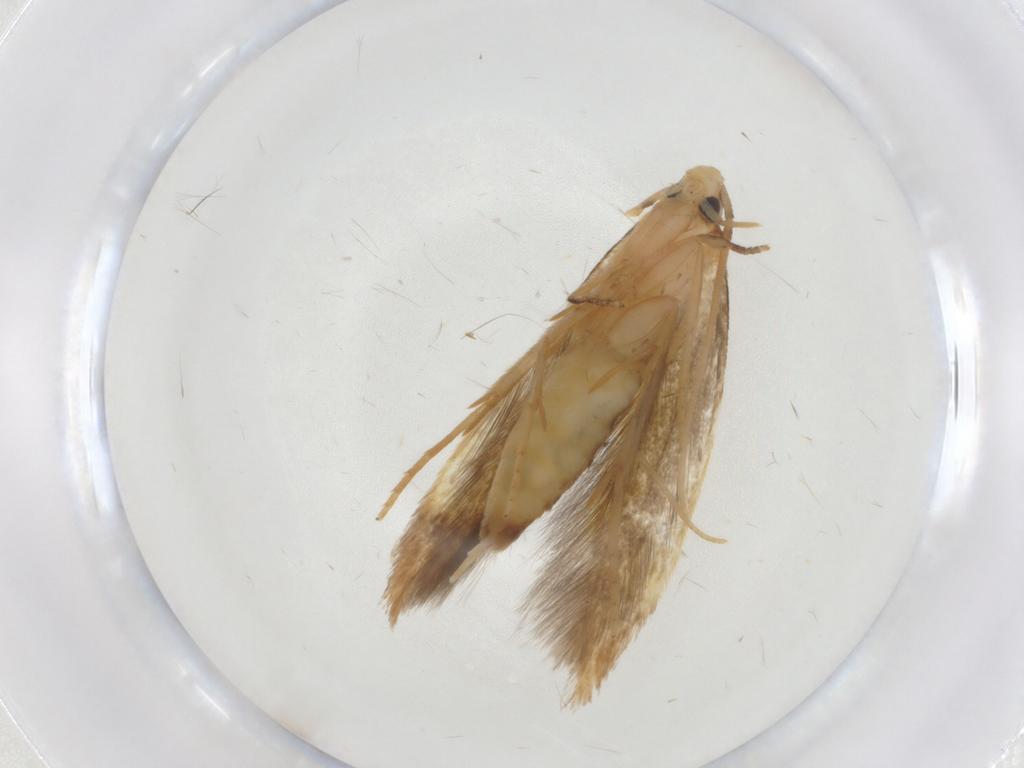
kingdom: Animalia
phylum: Arthropoda
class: Insecta
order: Lepidoptera
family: Tineidae
